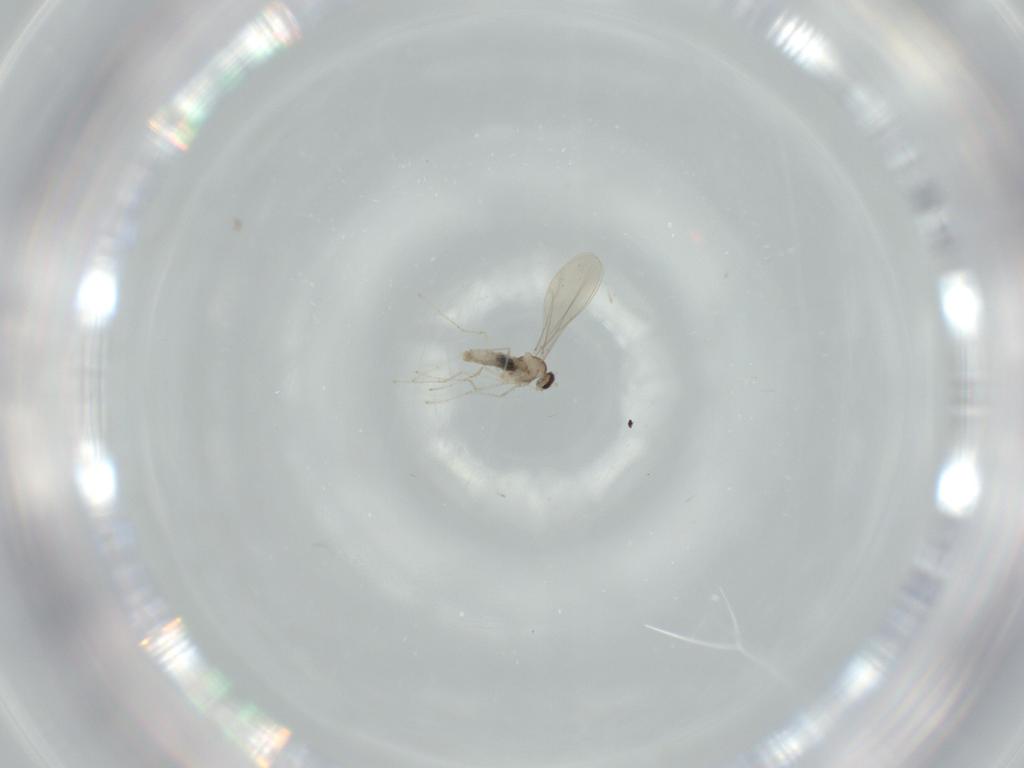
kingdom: Animalia
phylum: Arthropoda
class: Insecta
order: Diptera
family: Cecidomyiidae
